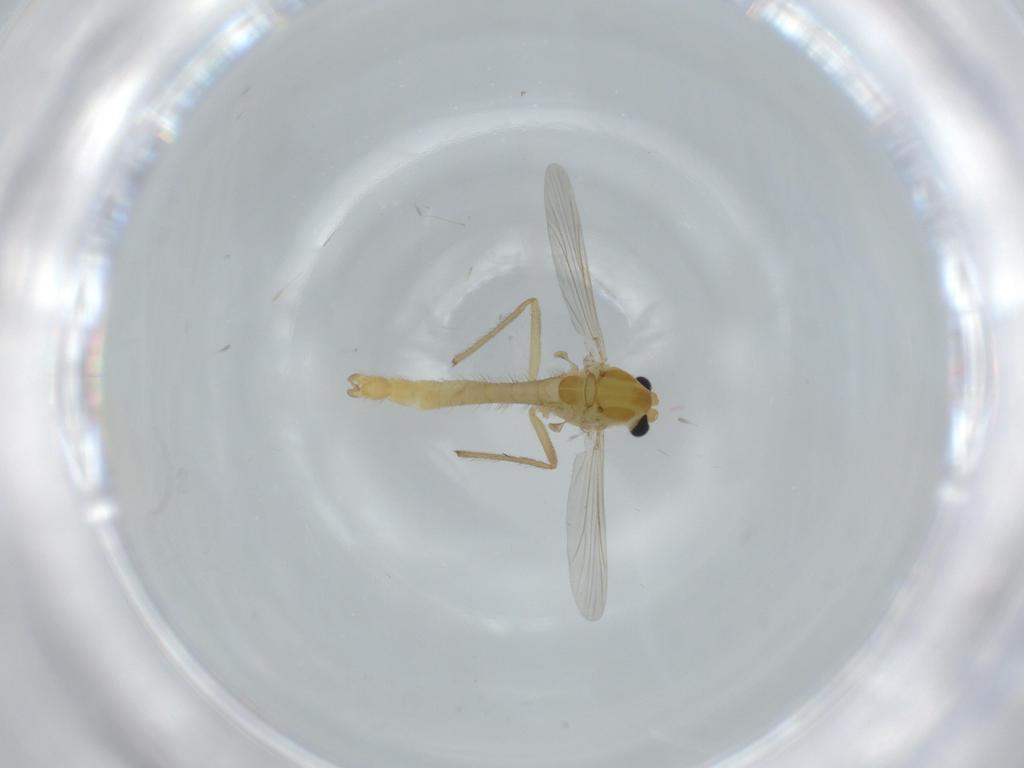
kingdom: Animalia
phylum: Arthropoda
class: Insecta
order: Diptera
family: Chironomidae
